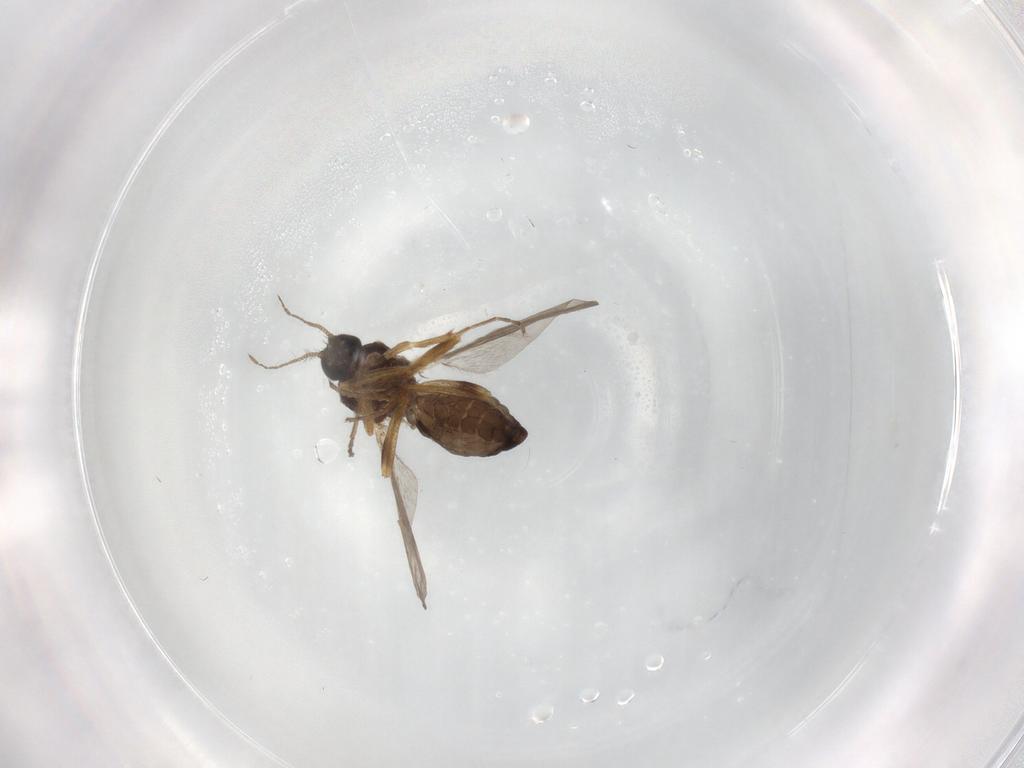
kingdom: Animalia
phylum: Arthropoda
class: Insecta
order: Diptera
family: Ceratopogonidae
